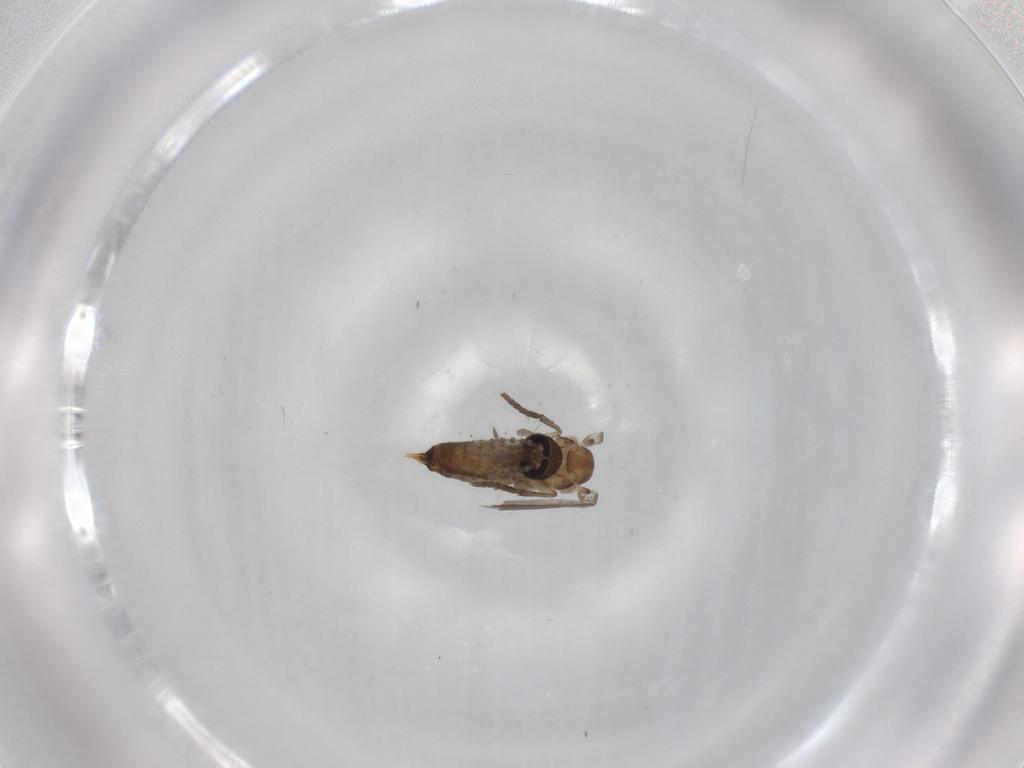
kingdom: Animalia
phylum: Arthropoda
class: Insecta
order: Diptera
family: Psychodidae
